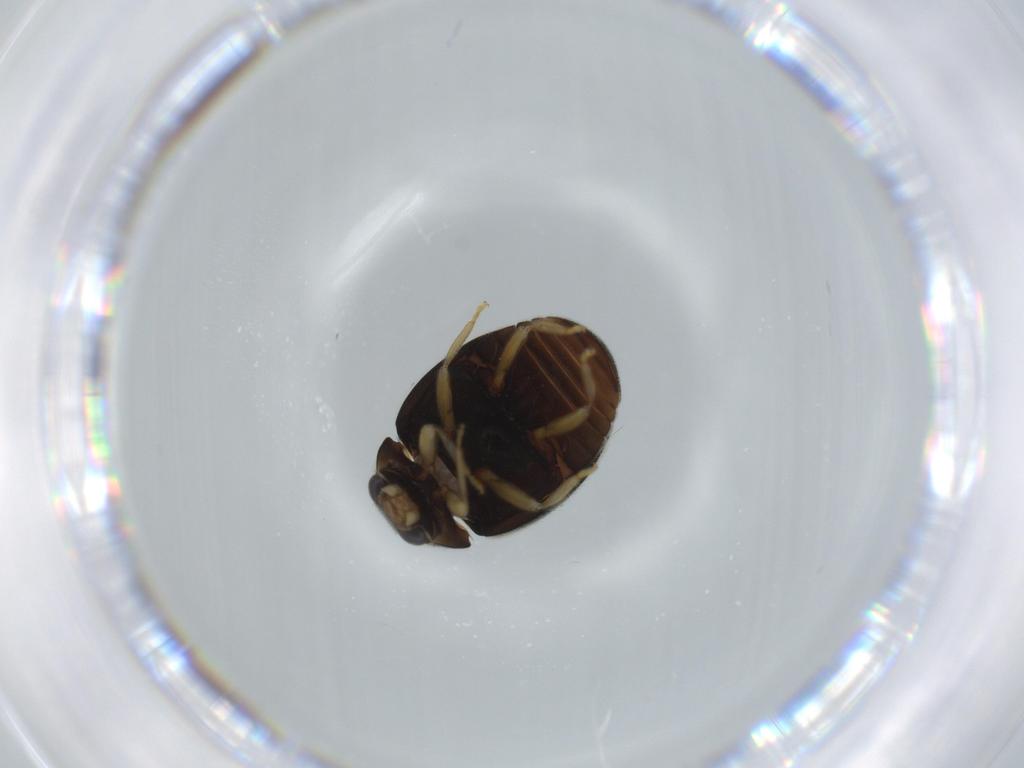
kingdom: Animalia
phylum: Arthropoda
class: Insecta
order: Coleoptera
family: Coccinellidae
